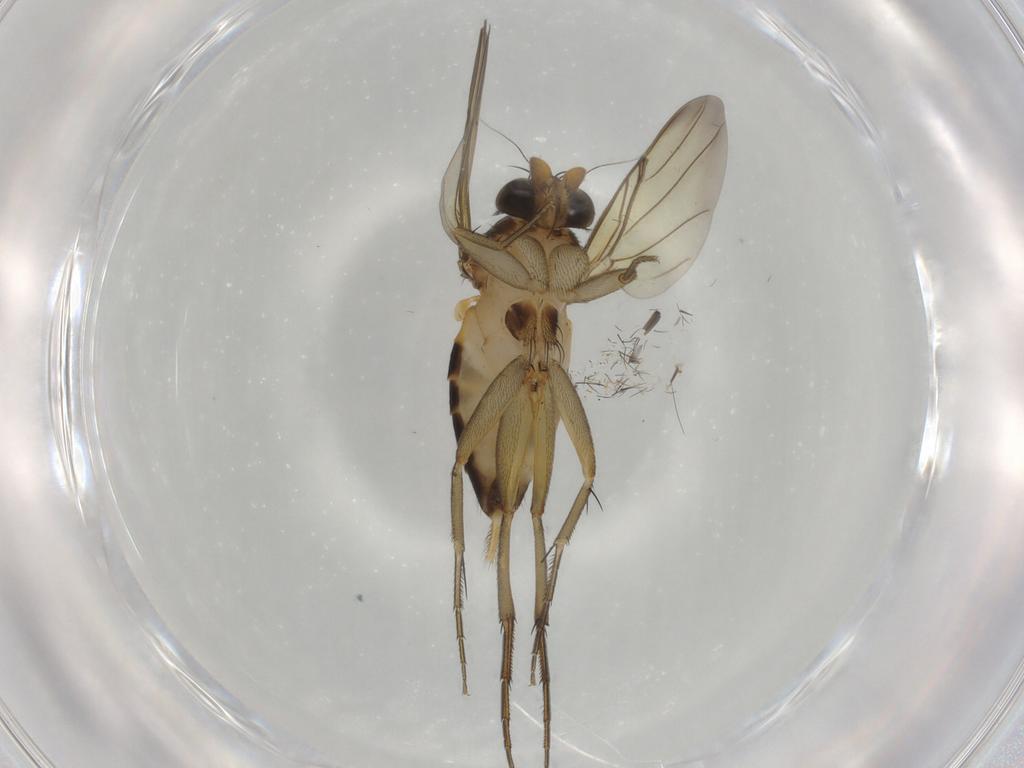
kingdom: Animalia
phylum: Arthropoda
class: Insecta
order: Diptera
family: Phoridae
